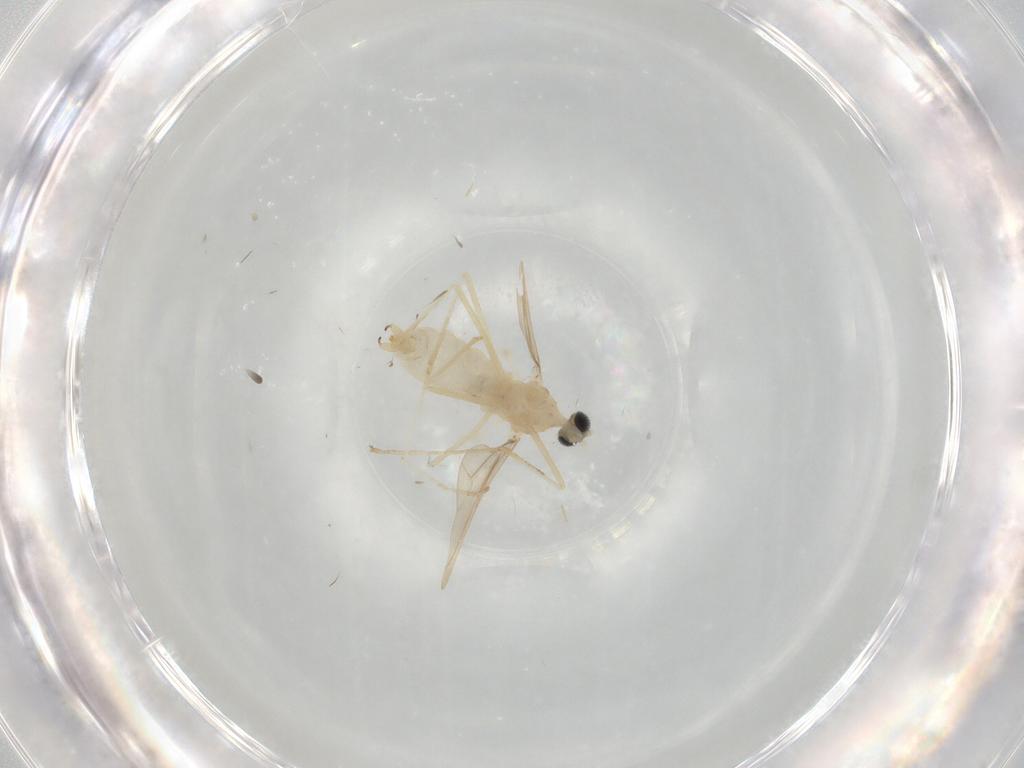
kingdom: Animalia
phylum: Arthropoda
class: Insecta
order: Diptera
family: Cecidomyiidae
